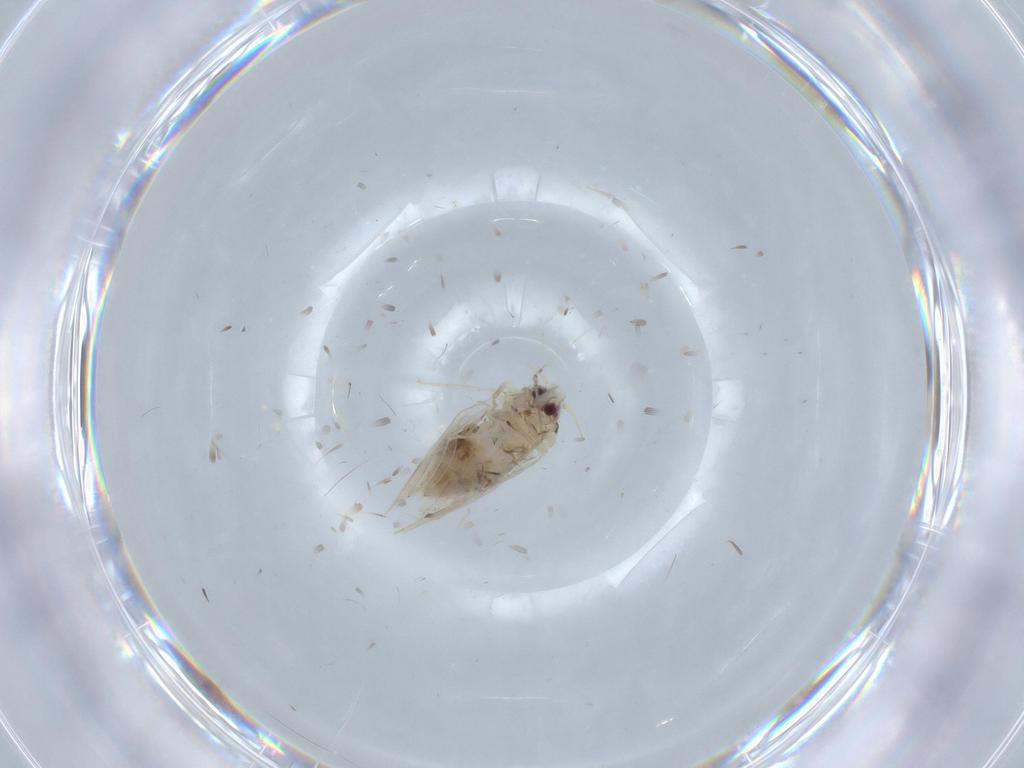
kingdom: Animalia
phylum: Arthropoda
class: Insecta
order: Hemiptera
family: Aleyrodidae
